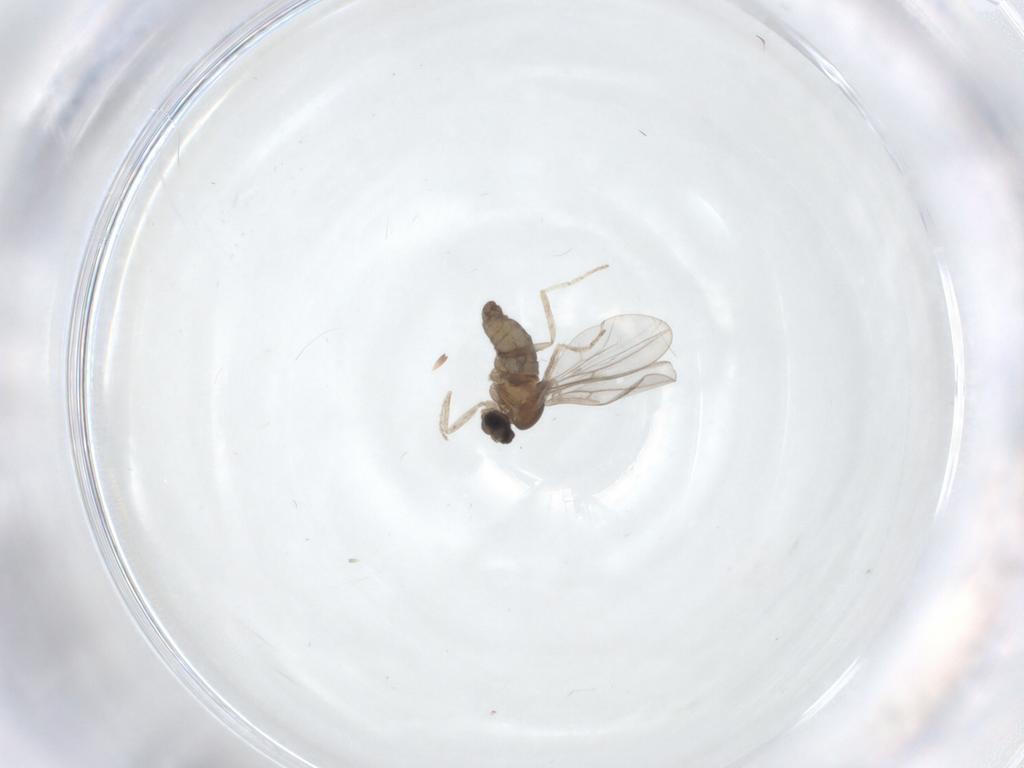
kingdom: Animalia
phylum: Arthropoda
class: Insecta
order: Diptera
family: Cecidomyiidae
